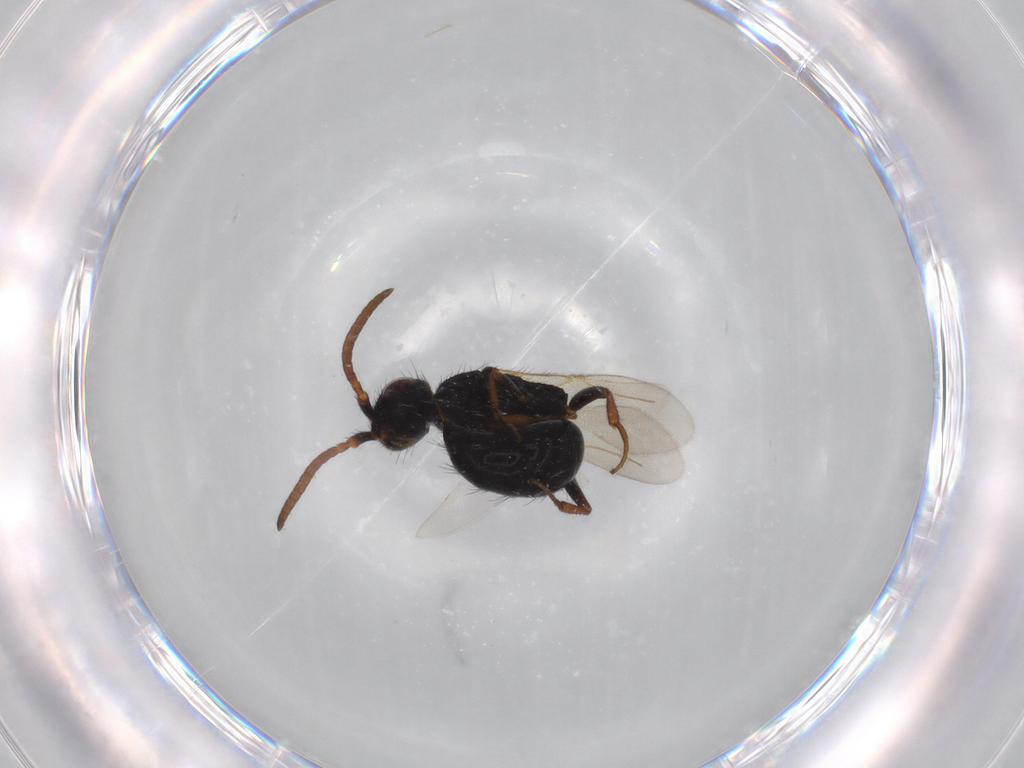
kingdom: Animalia
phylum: Arthropoda
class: Insecta
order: Hymenoptera
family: Bethylidae
